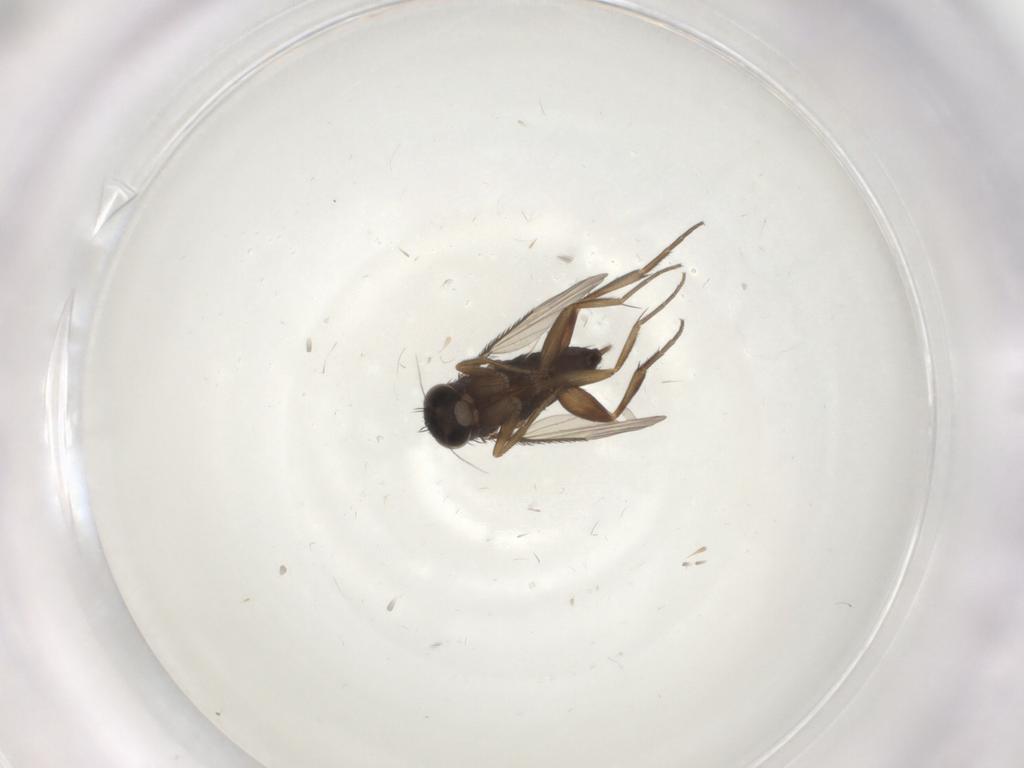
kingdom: Animalia
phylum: Arthropoda
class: Insecta
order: Diptera
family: Phoridae
